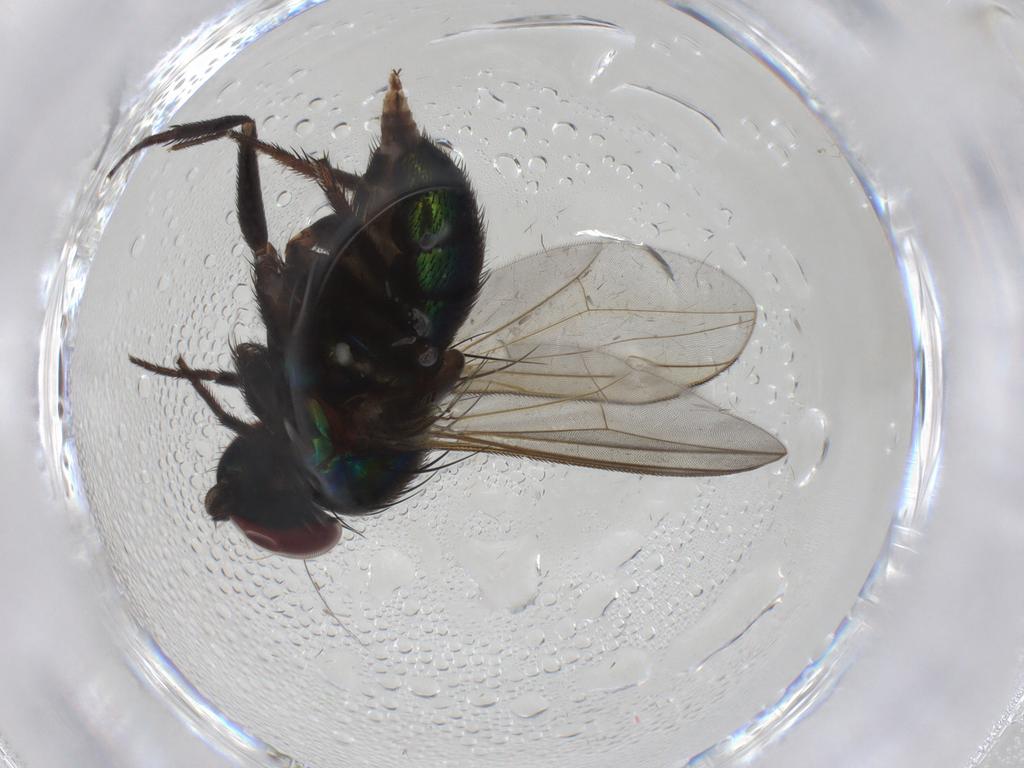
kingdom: Animalia
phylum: Arthropoda
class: Insecta
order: Diptera
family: Dolichopodidae
